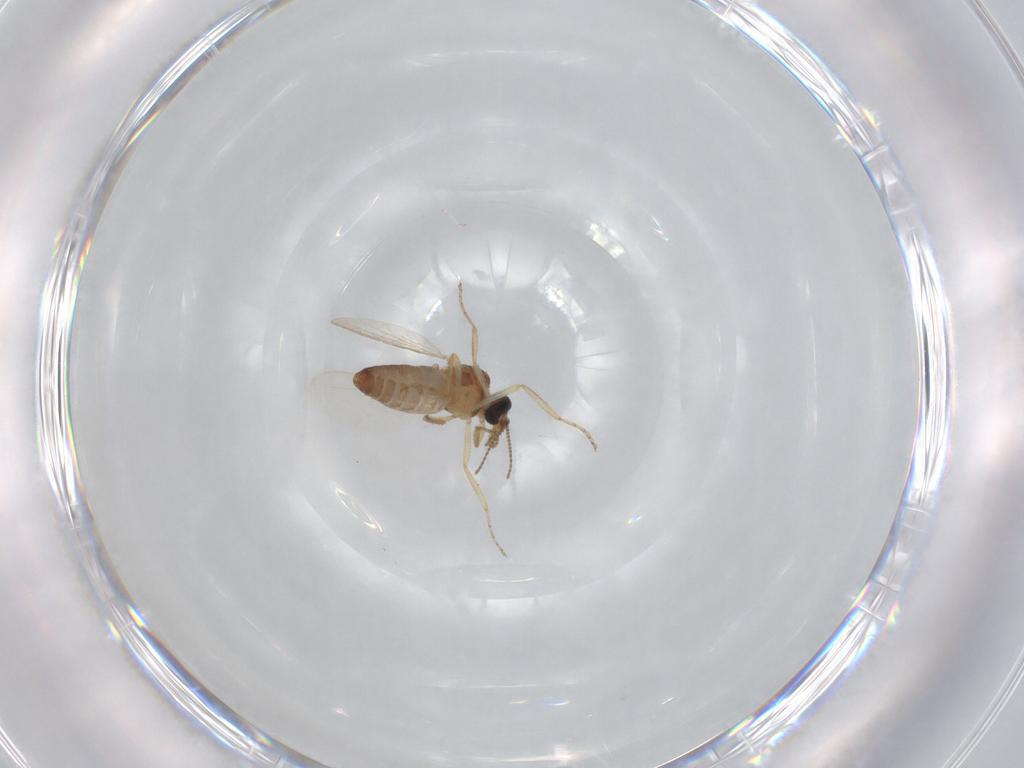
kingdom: Animalia
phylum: Arthropoda
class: Insecta
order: Diptera
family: Ceratopogonidae
